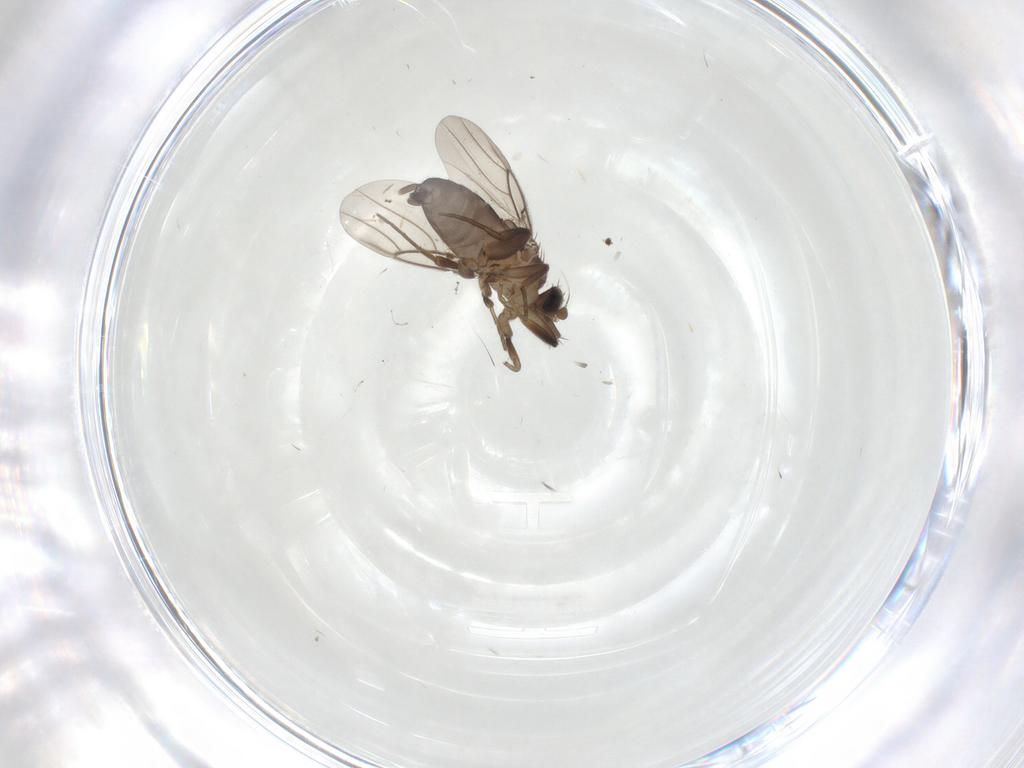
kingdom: Animalia
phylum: Arthropoda
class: Insecta
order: Diptera
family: Phoridae
